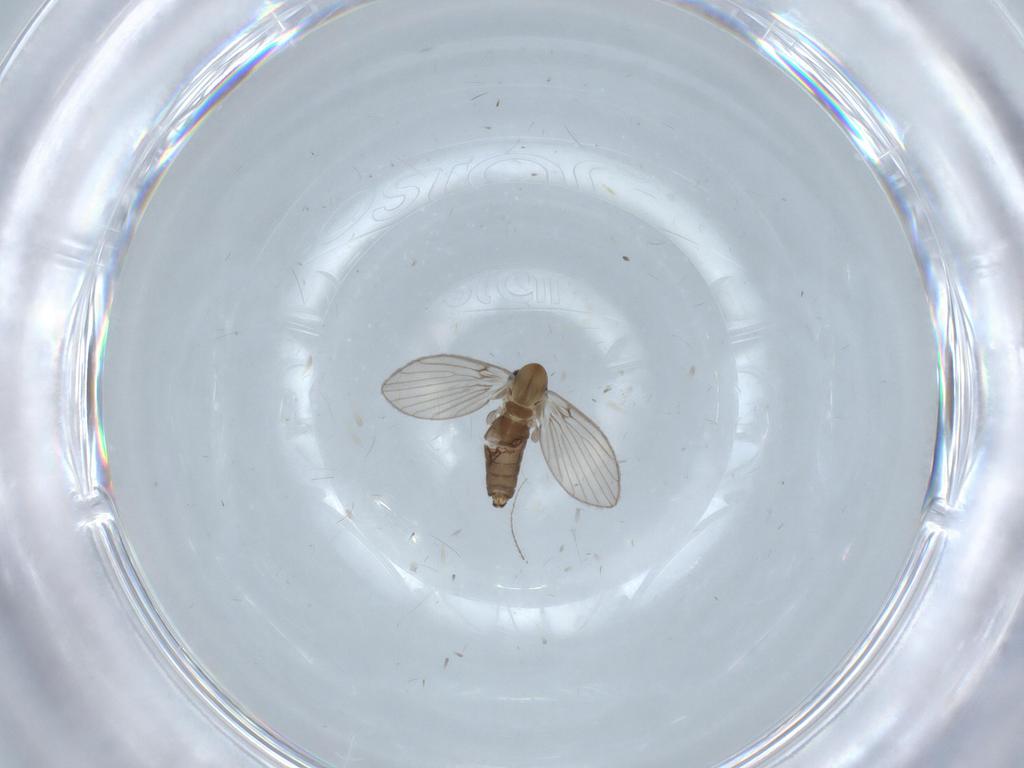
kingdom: Animalia
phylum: Arthropoda
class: Insecta
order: Diptera
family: Psychodidae
